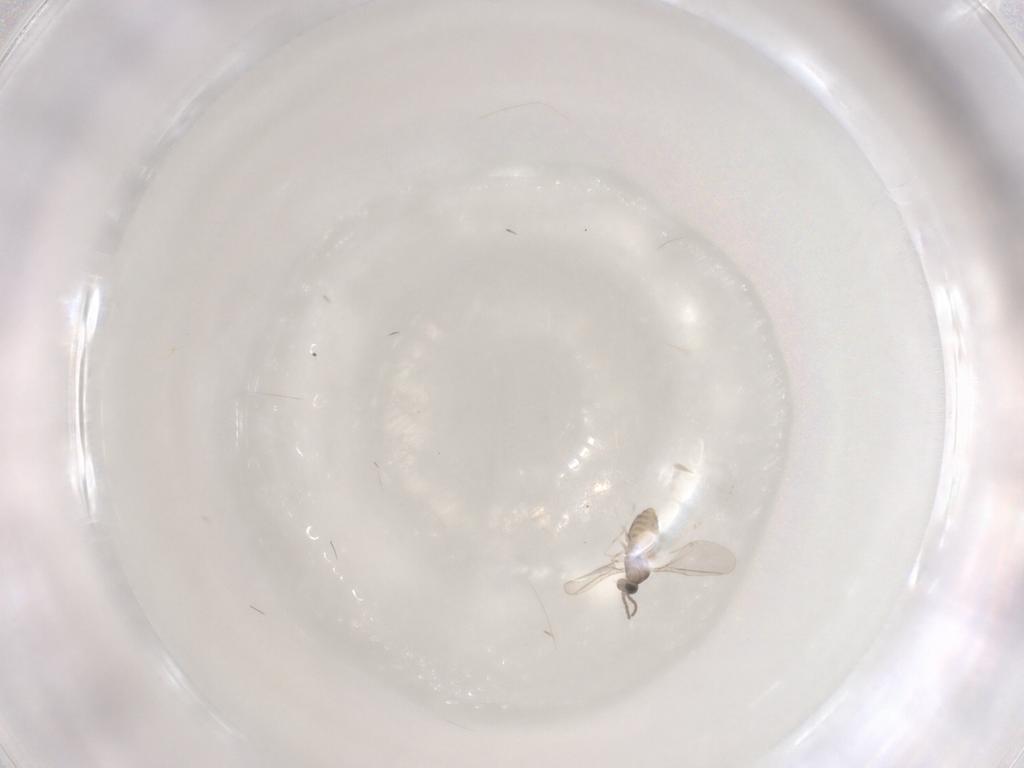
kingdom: Animalia
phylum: Arthropoda
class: Insecta
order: Diptera
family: Cecidomyiidae
